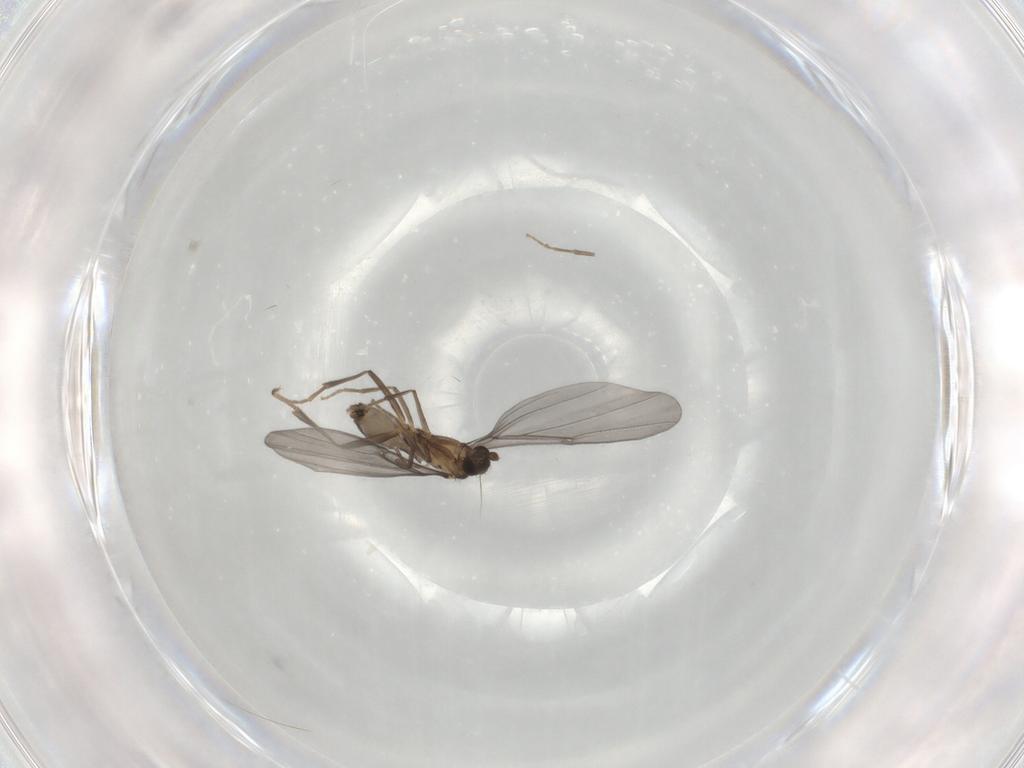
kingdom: Animalia
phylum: Arthropoda
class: Insecta
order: Diptera
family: Phoridae
